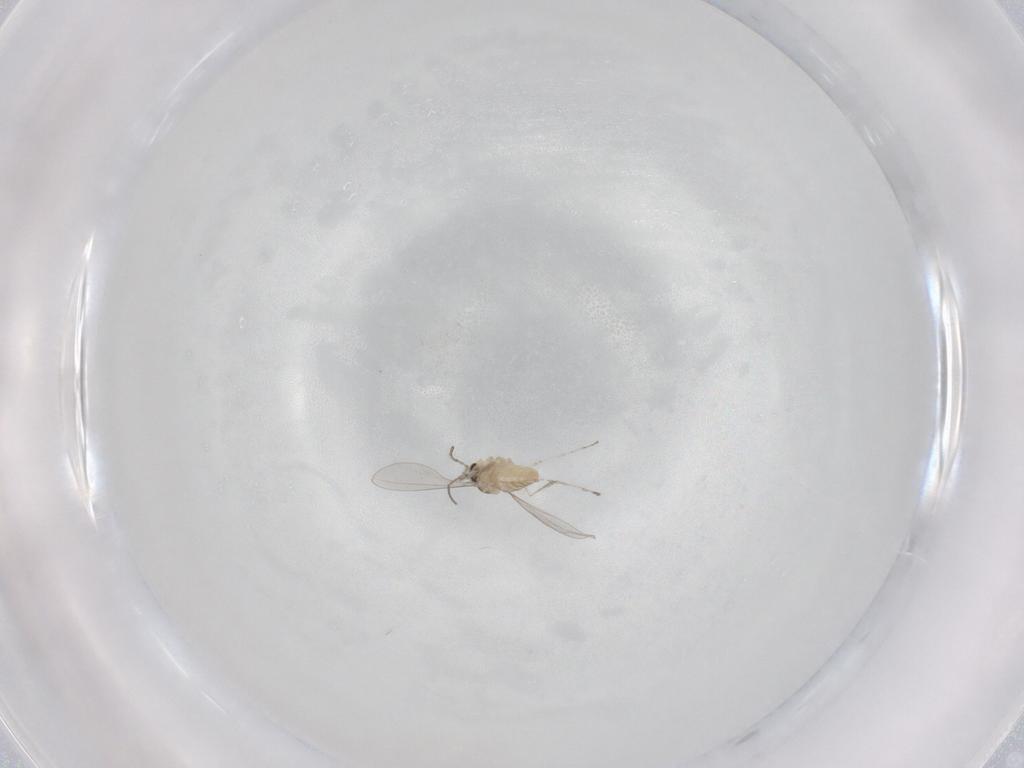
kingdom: Animalia
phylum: Arthropoda
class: Insecta
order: Diptera
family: Cecidomyiidae
